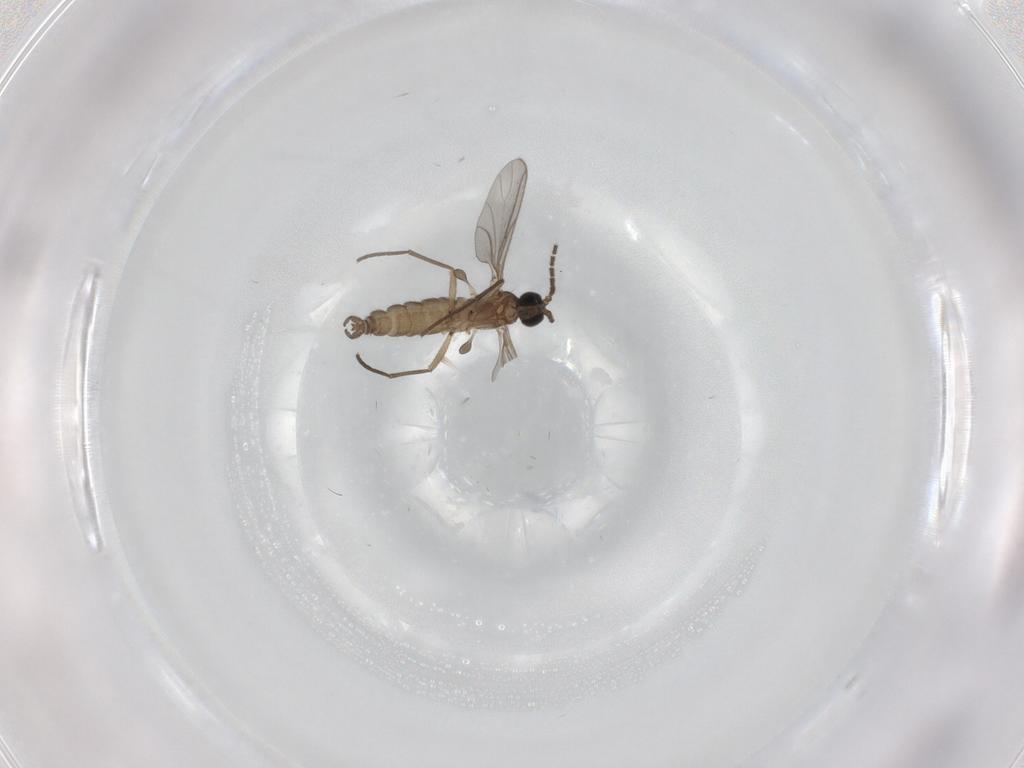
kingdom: Animalia
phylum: Arthropoda
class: Insecta
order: Diptera
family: Sciaridae
